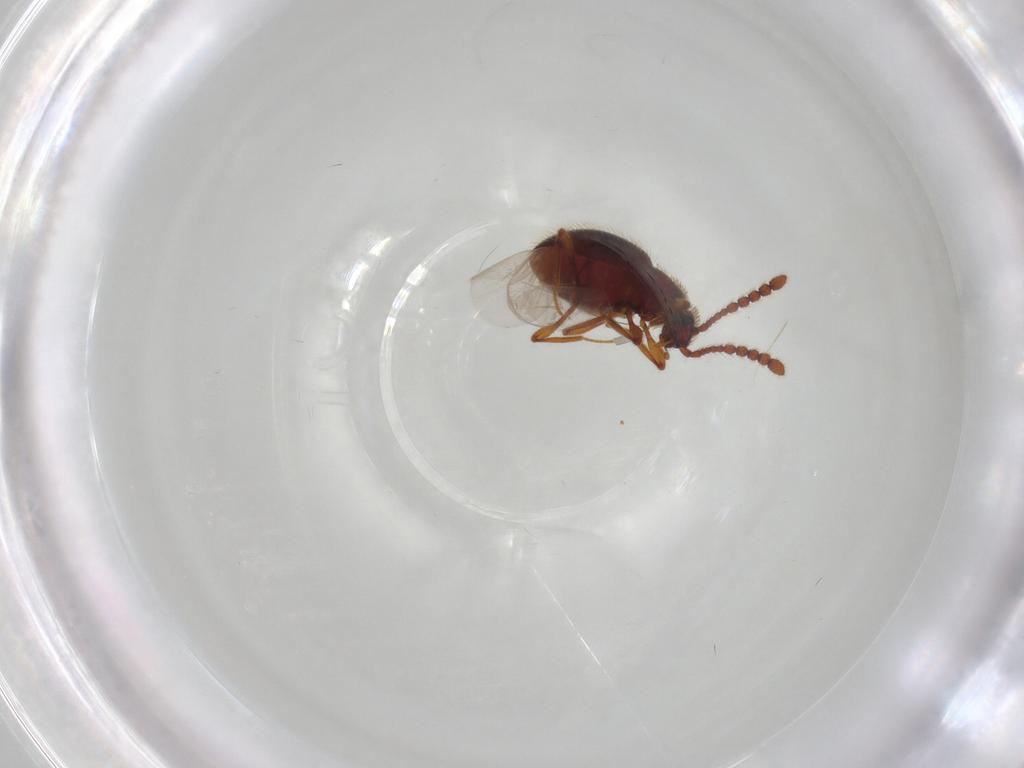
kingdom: Animalia
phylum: Arthropoda
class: Insecta
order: Coleoptera
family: Staphylinidae
